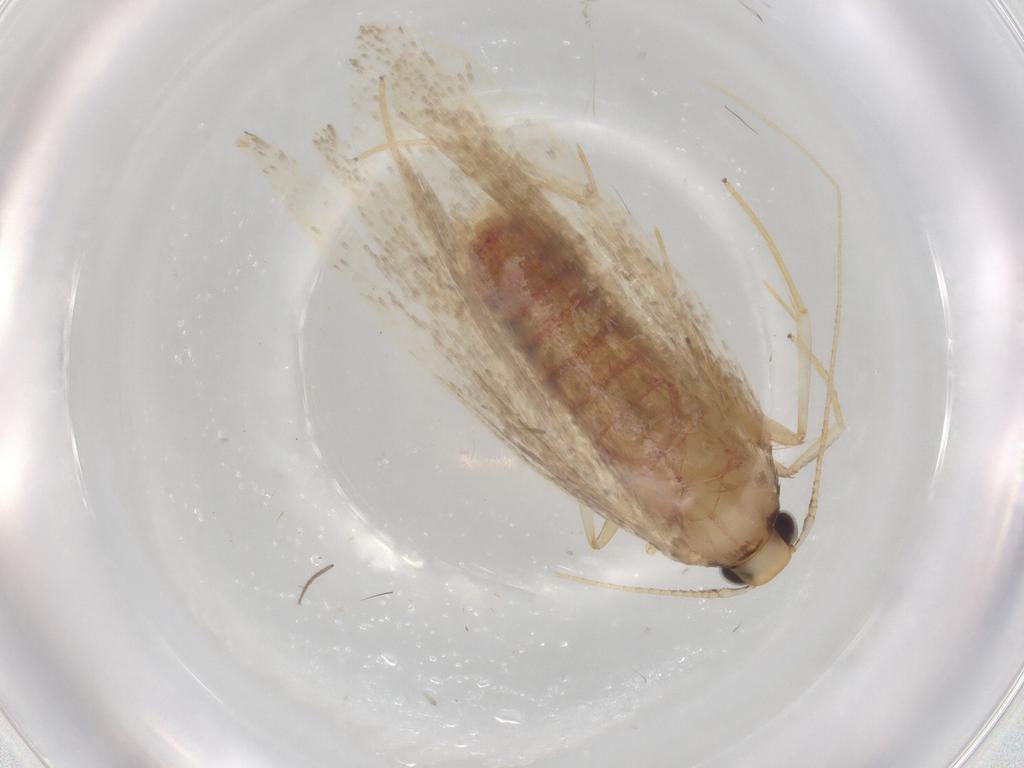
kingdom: Animalia
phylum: Arthropoda
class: Insecta
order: Lepidoptera
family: Lecithoceridae
